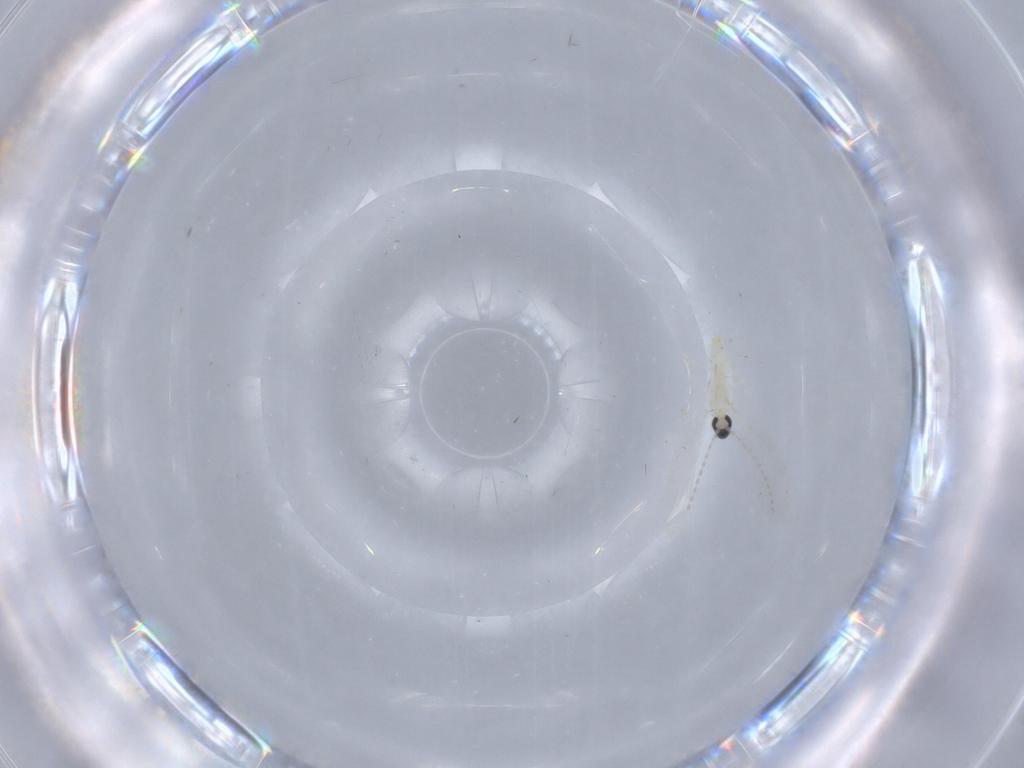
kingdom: Animalia
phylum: Arthropoda
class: Insecta
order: Diptera
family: Cecidomyiidae
